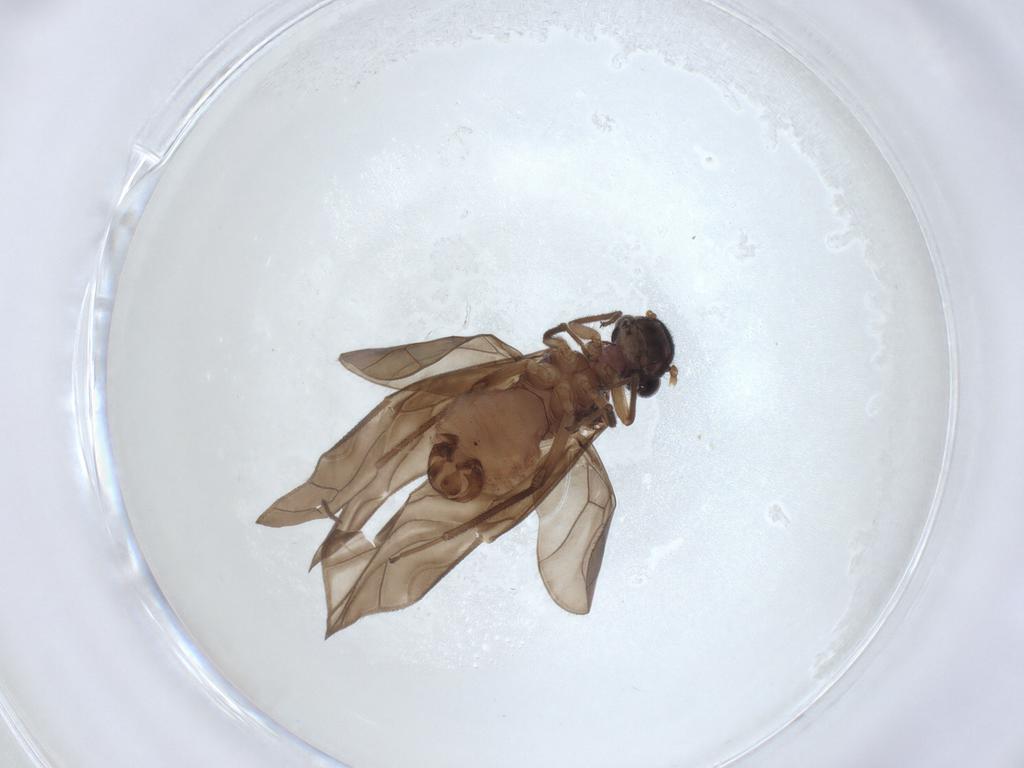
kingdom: Animalia
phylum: Arthropoda
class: Insecta
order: Psocodea
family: Caeciliusidae
